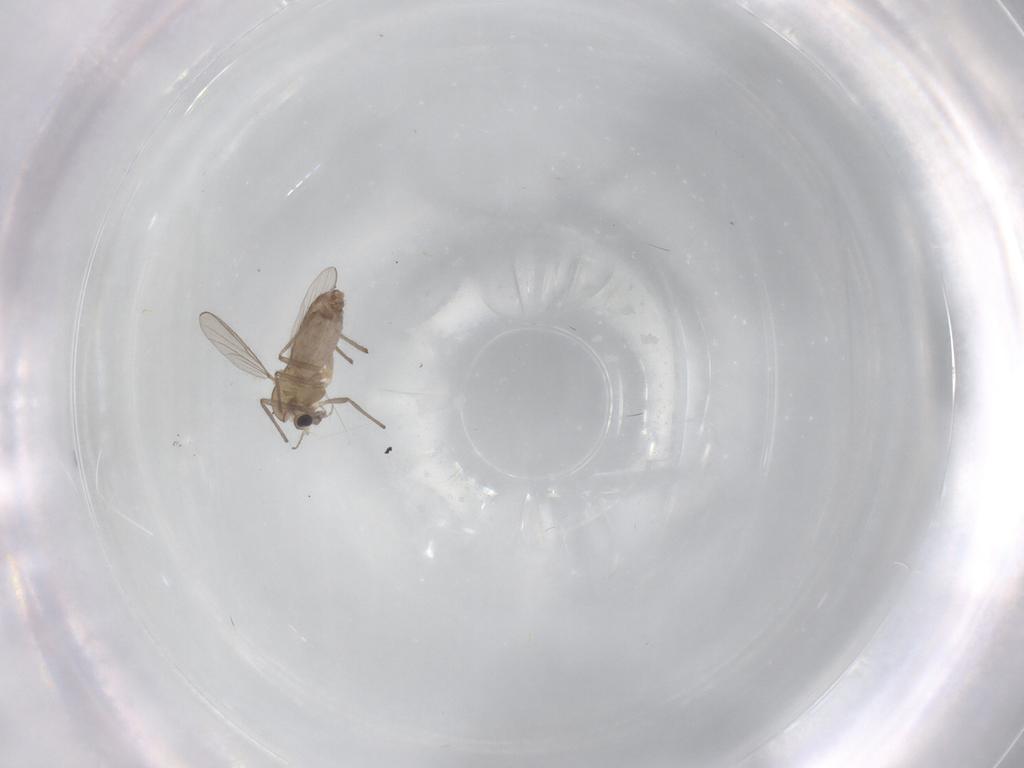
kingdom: Animalia
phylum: Arthropoda
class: Insecta
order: Diptera
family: Chironomidae
